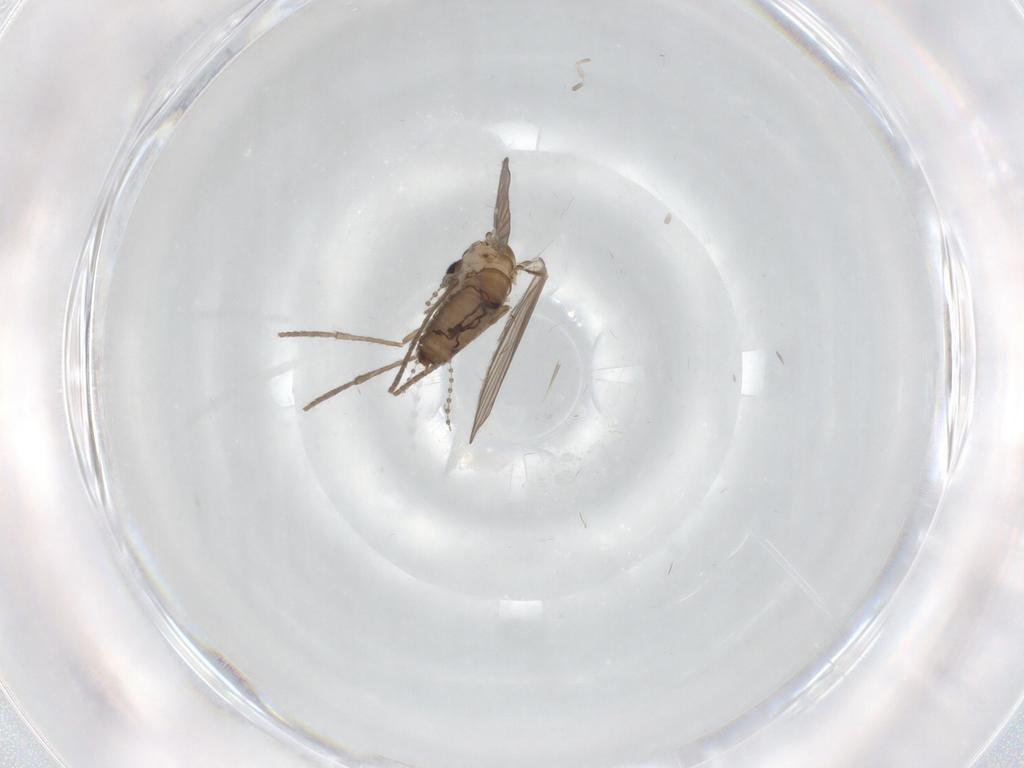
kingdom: Animalia
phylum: Arthropoda
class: Insecta
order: Diptera
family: Psychodidae
